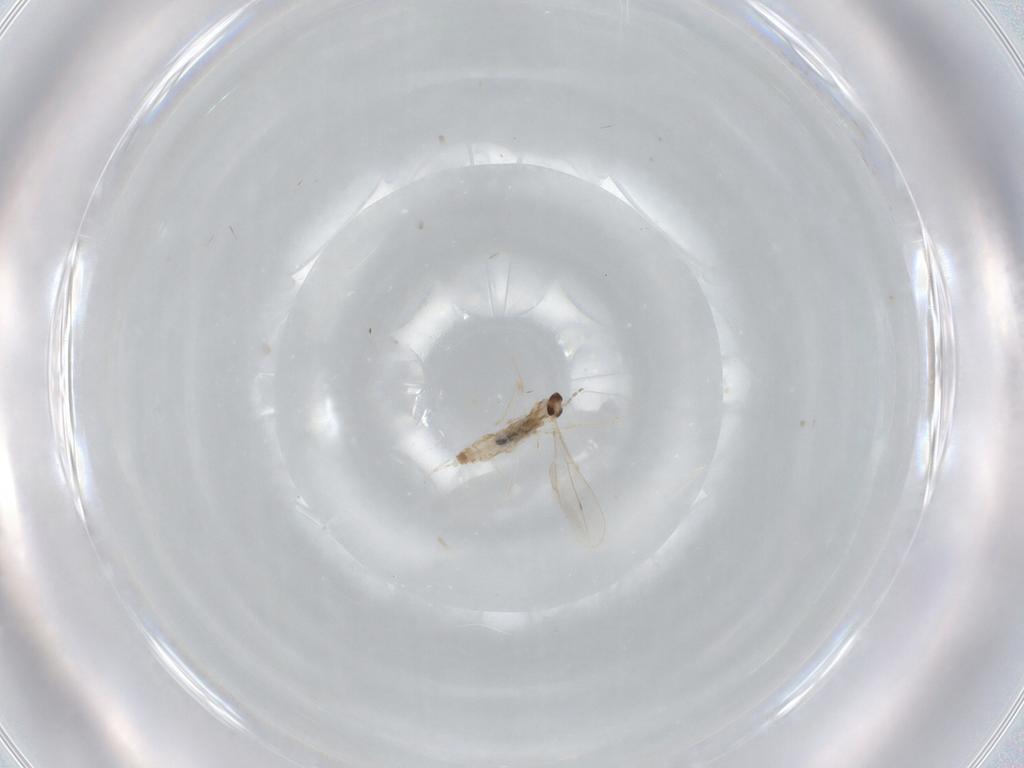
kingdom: Animalia
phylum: Arthropoda
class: Insecta
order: Diptera
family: Cecidomyiidae
